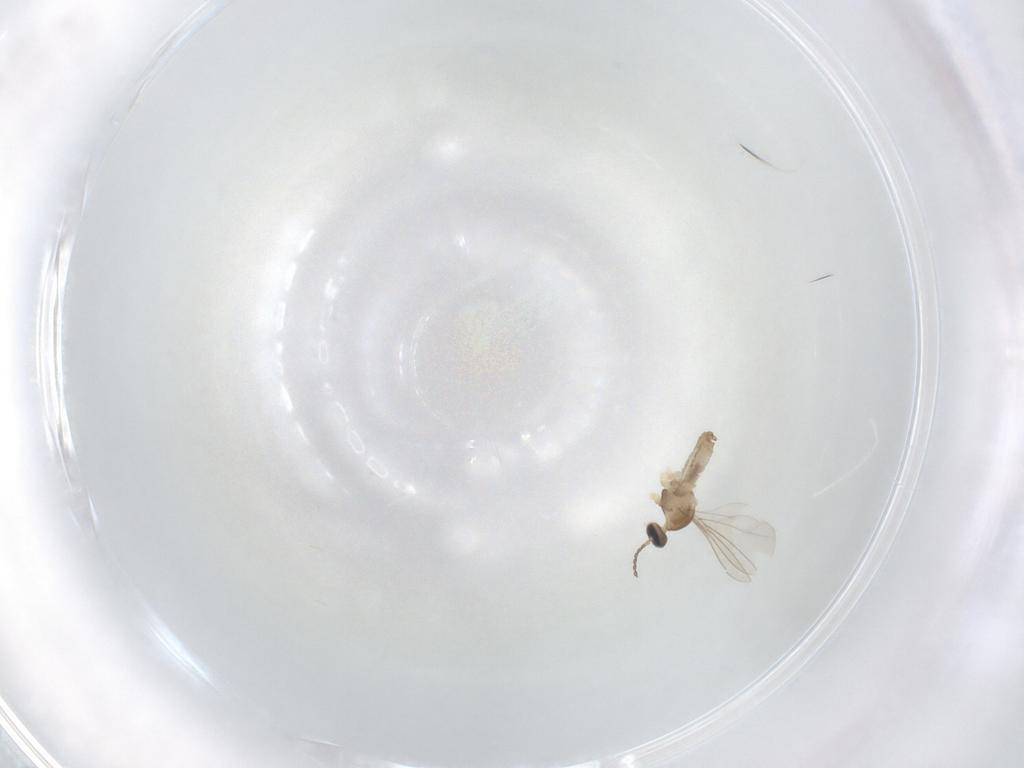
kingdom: Animalia
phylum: Arthropoda
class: Insecta
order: Diptera
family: Cecidomyiidae
